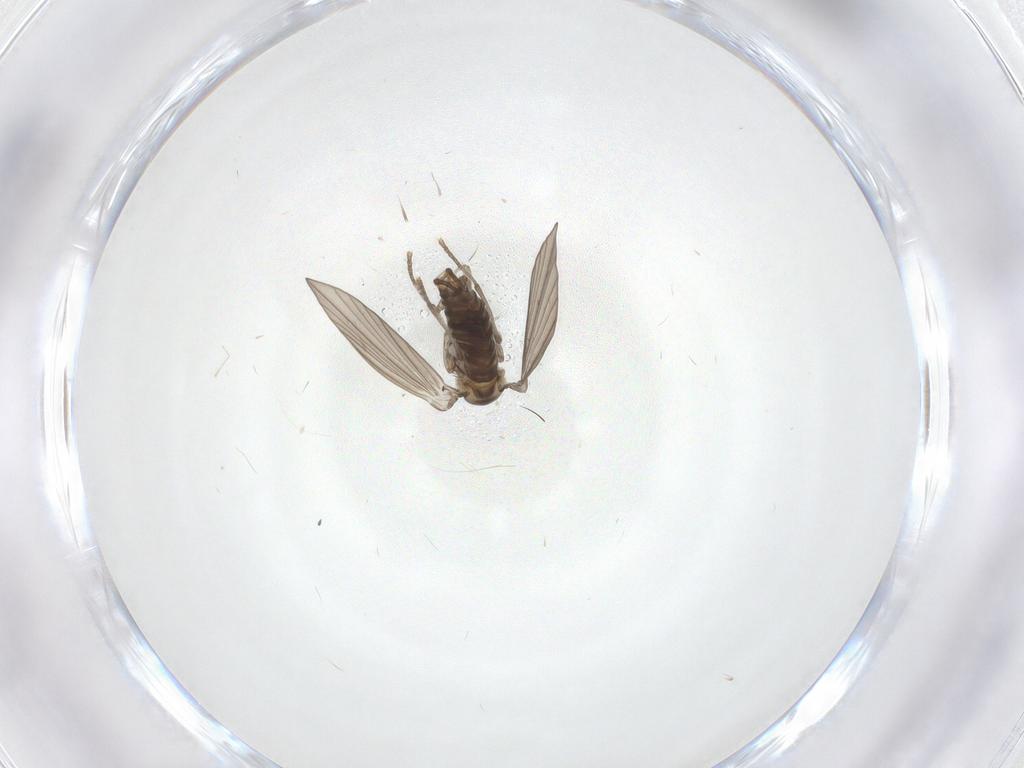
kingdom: Animalia
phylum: Arthropoda
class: Insecta
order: Diptera
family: Psychodidae
